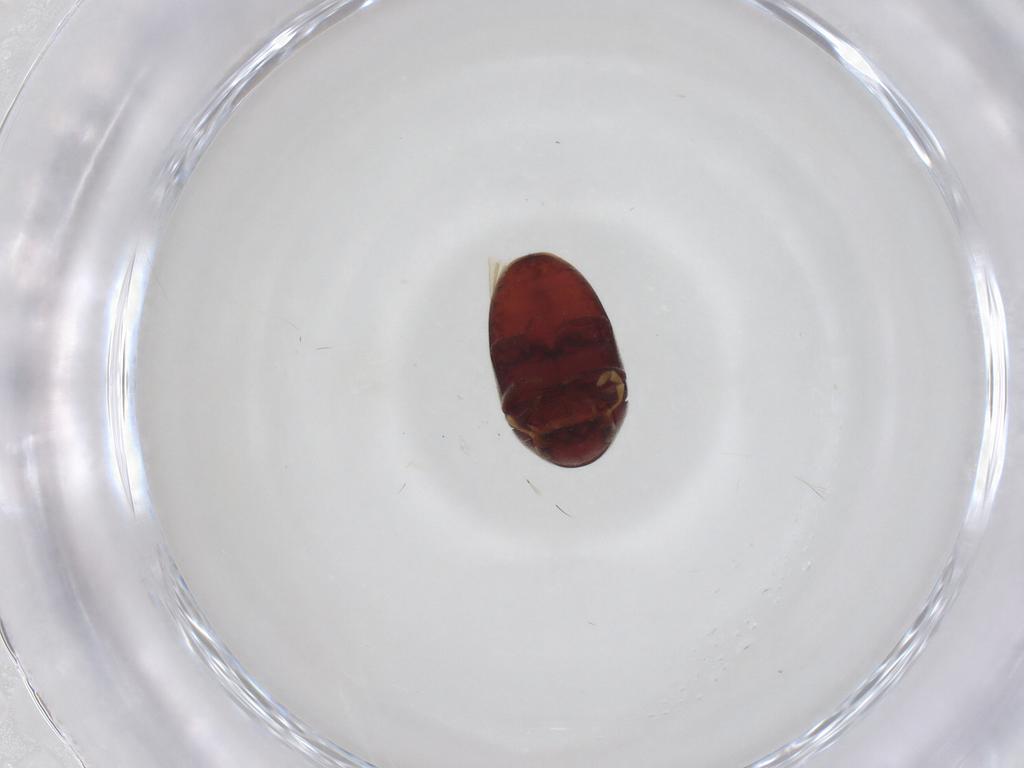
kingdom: Animalia
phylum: Arthropoda
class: Insecta
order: Coleoptera
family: Ptinidae
